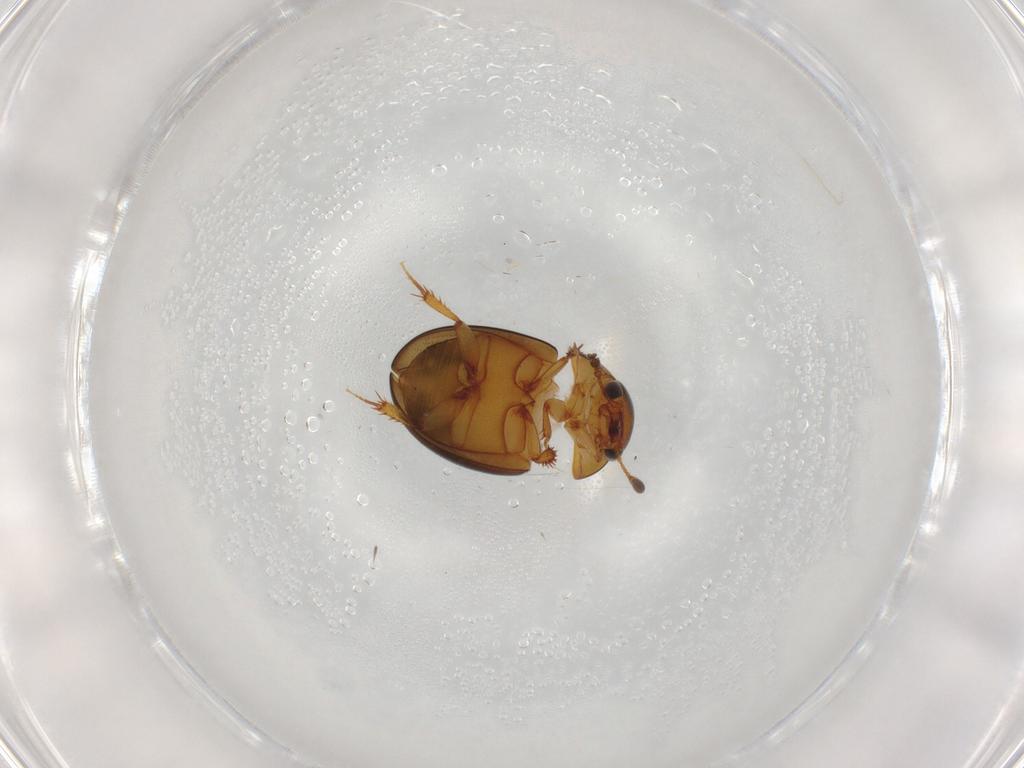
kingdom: Animalia
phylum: Arthropoda
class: Insecta
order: Coleoptera
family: Leiodidae
